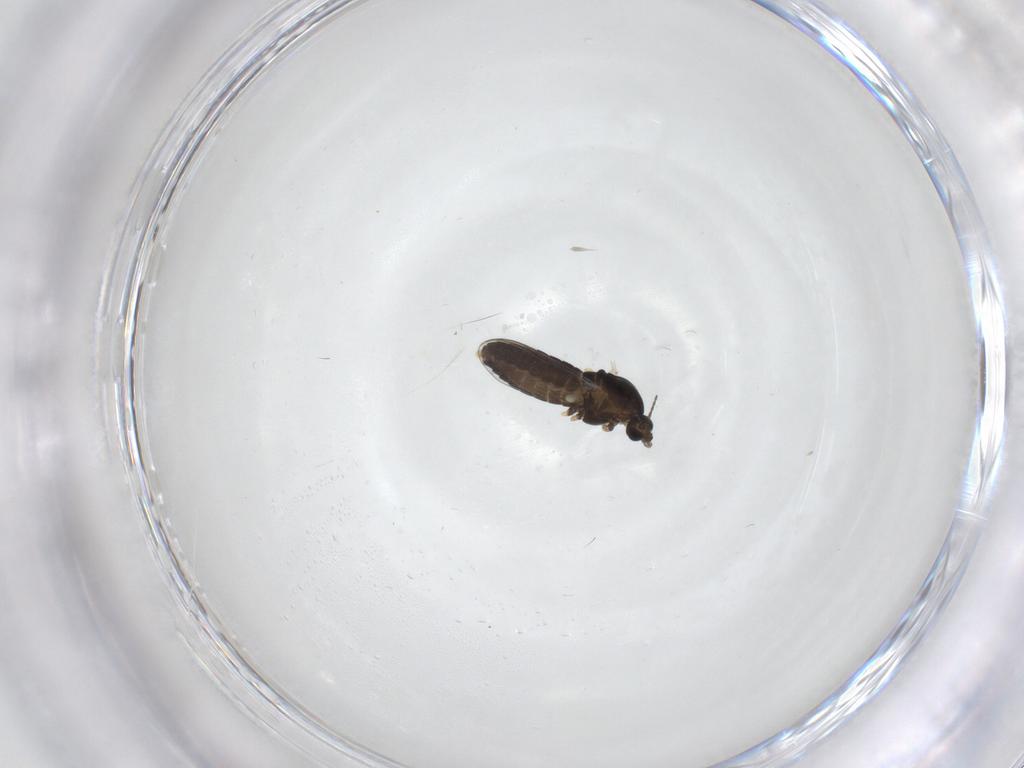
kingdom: Animalia
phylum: Arthropoda
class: Insecta
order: Diptera
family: Chironomidae
